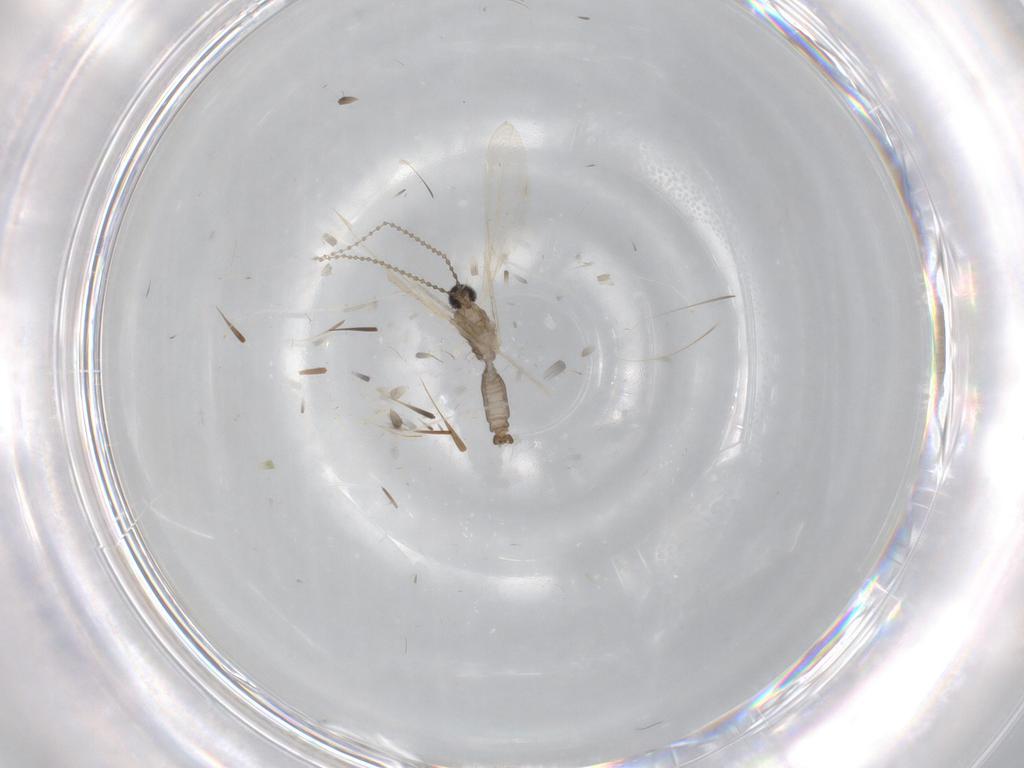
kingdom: Animalia
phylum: Arthropoda
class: Insecta
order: Diptera
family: Cecidomyiidae
